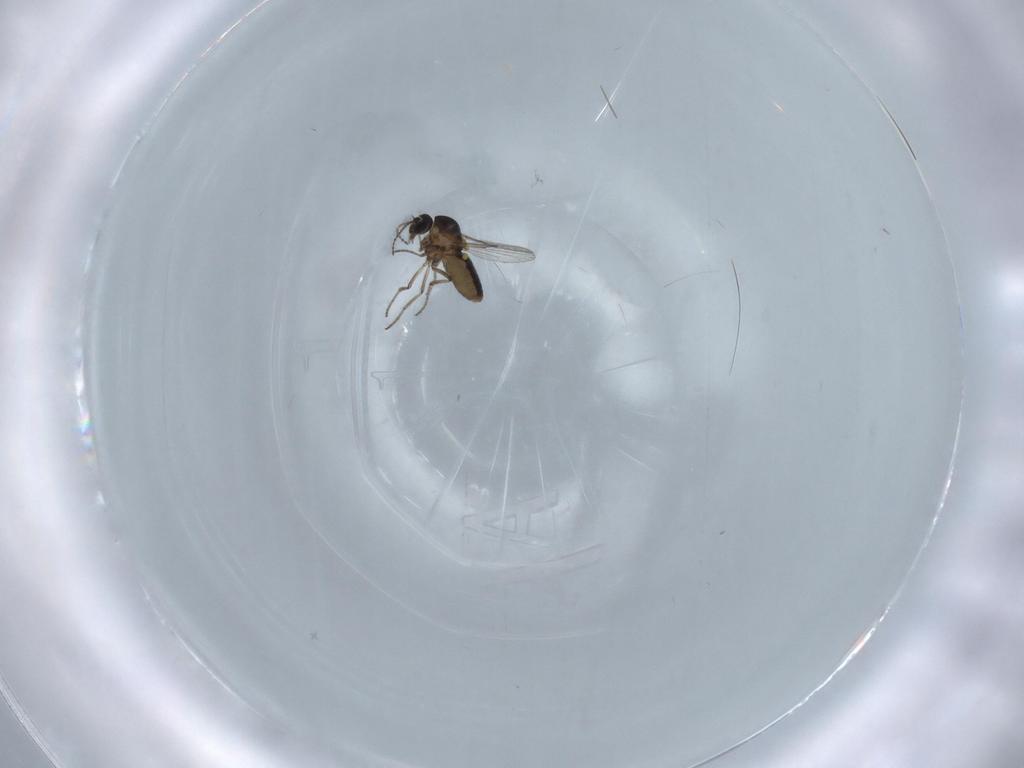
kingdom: Animalia
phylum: Arthropoda
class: Insecta
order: Diptera
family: Ceratopogonidae
